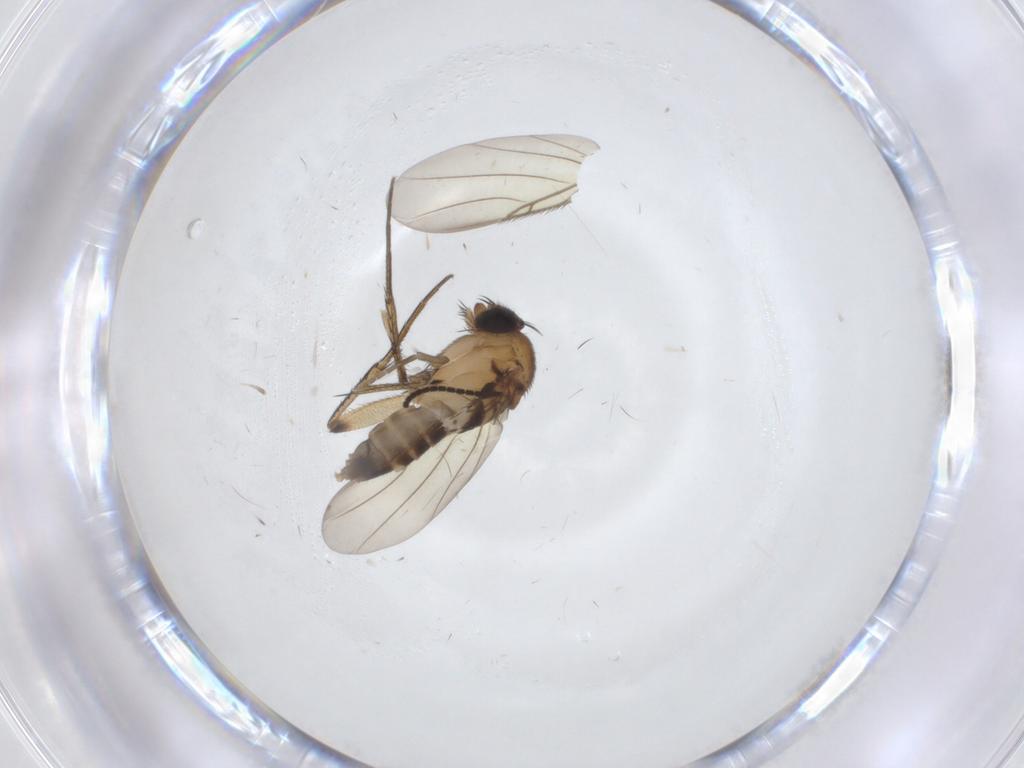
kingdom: Animalia
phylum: Arthropoda
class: Insecta
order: Diptera
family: Sciaridae
